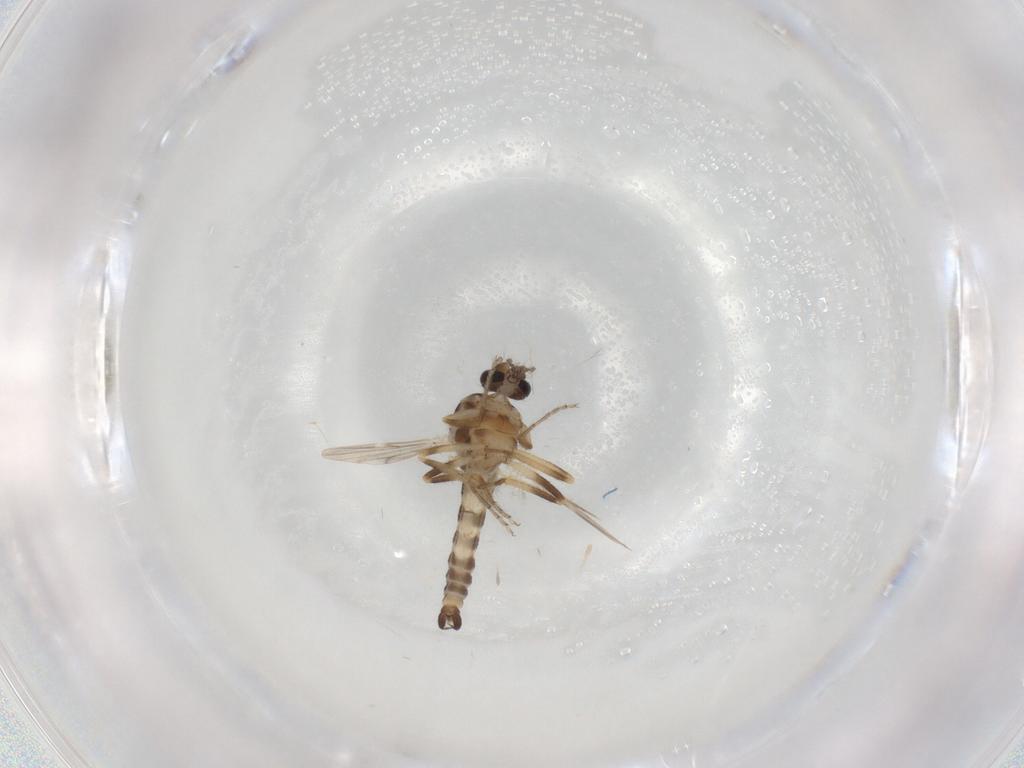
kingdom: Animalia
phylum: Arthropoda
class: Insecta
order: Diptera
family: Ceratopogonidae
